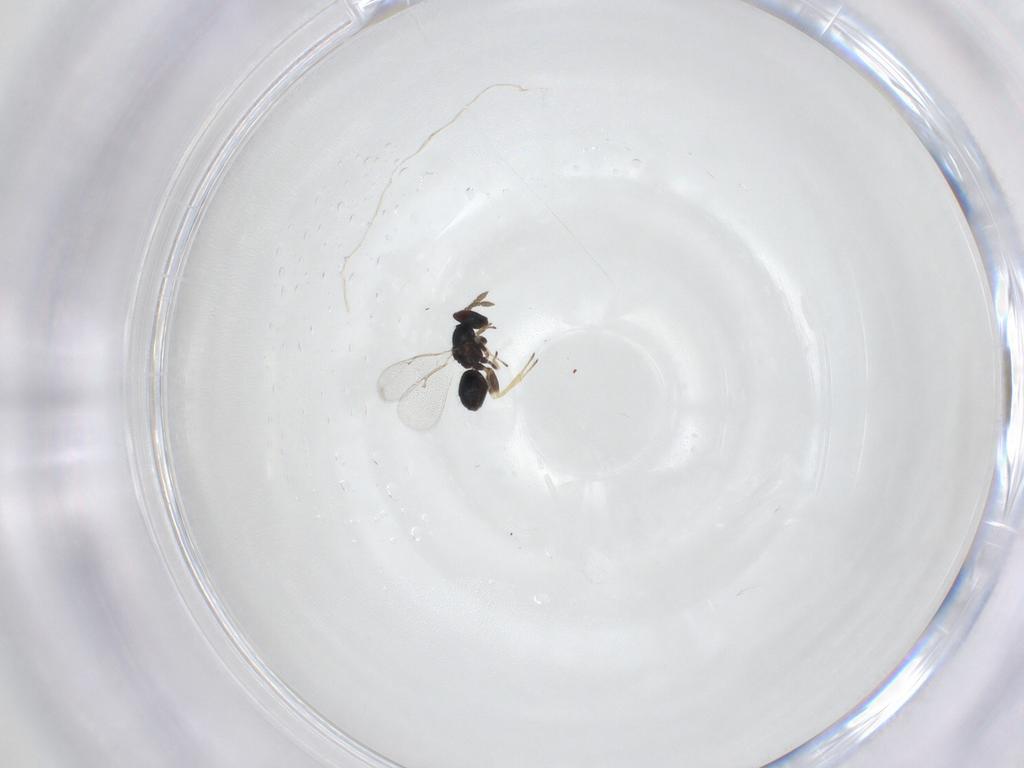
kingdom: Animalia
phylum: Arthropoda
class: Insecta
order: Hymenoptera
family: Eulophidae
